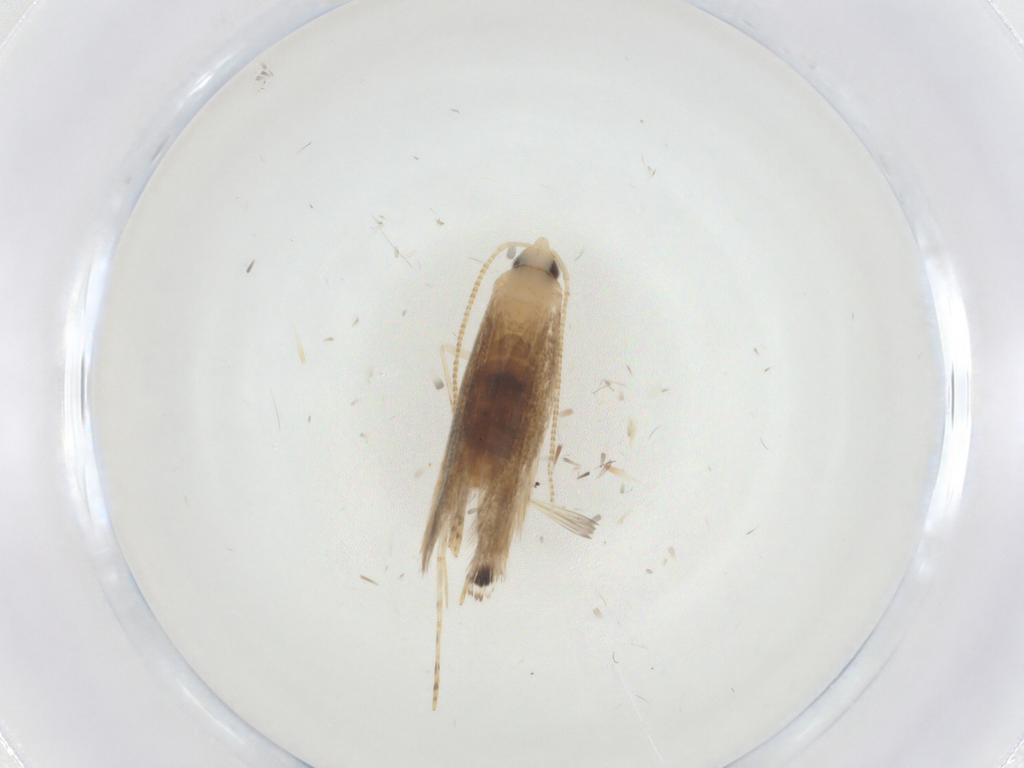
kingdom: Animalia
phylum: Arthropoda
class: Insecta
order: Lepidoptera
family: Gracillariidae
